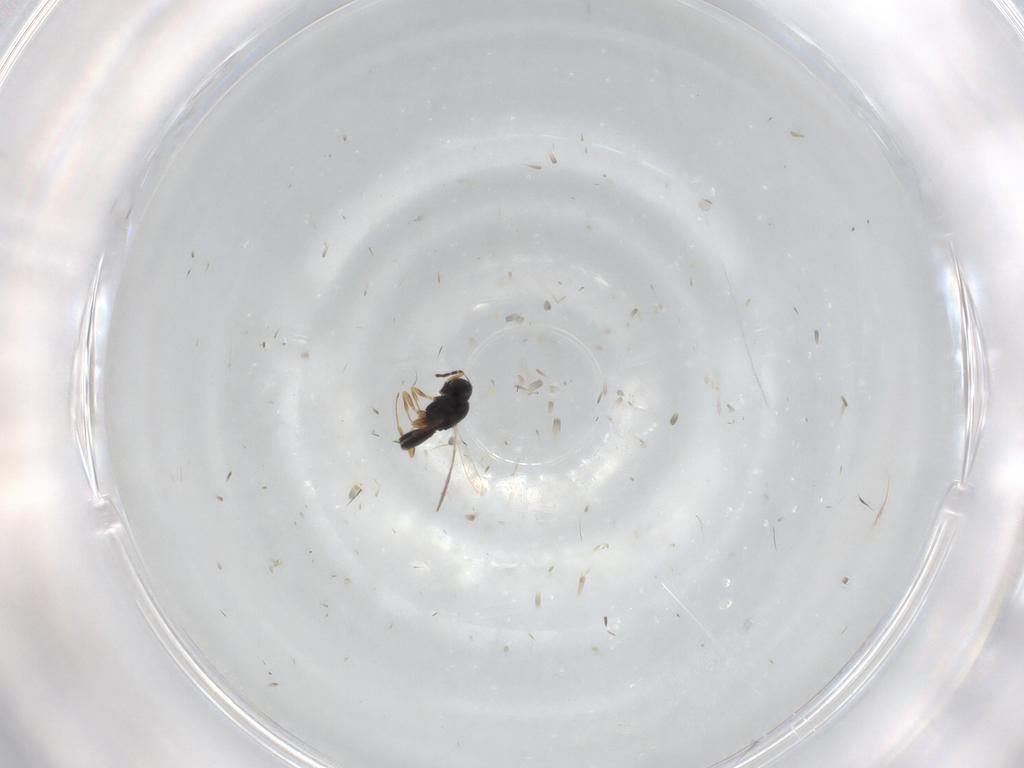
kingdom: Animalia
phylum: Arthropoda
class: Insecta
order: Hymenoptera
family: Scelionidae
